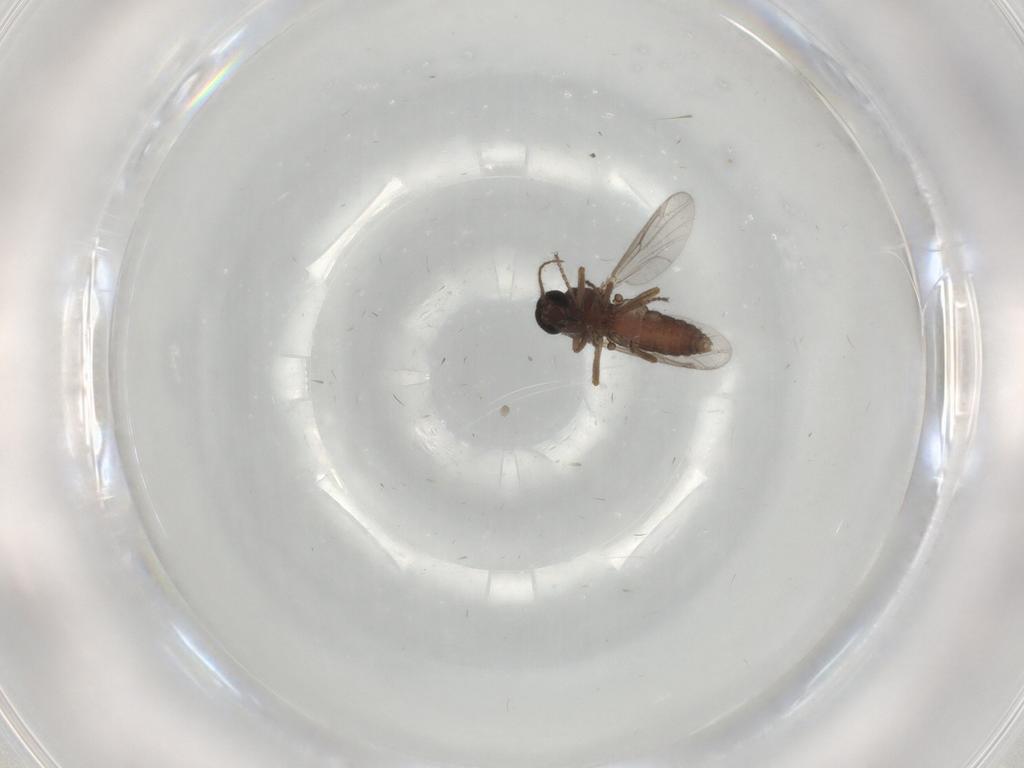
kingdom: Animalia
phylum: Arthropoda
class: Insecta
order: Diptera
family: Ceratopogonidae
